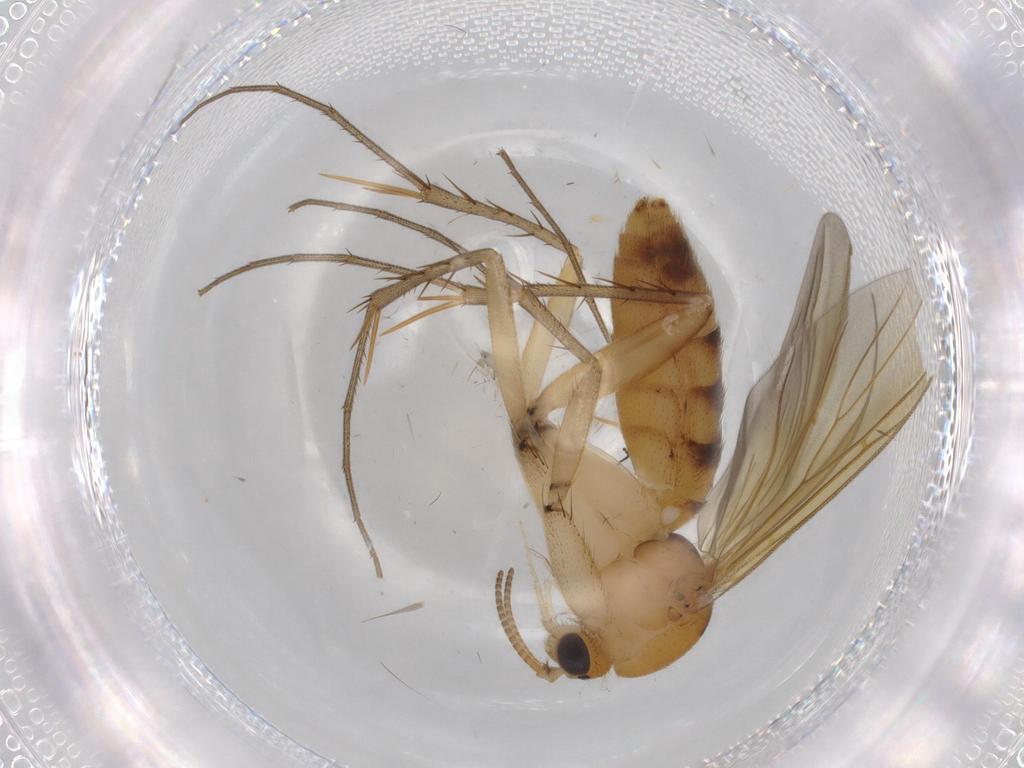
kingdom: Animalia
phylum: Arthropoda
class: Insecta
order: Diptera
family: Mycetophilidae
